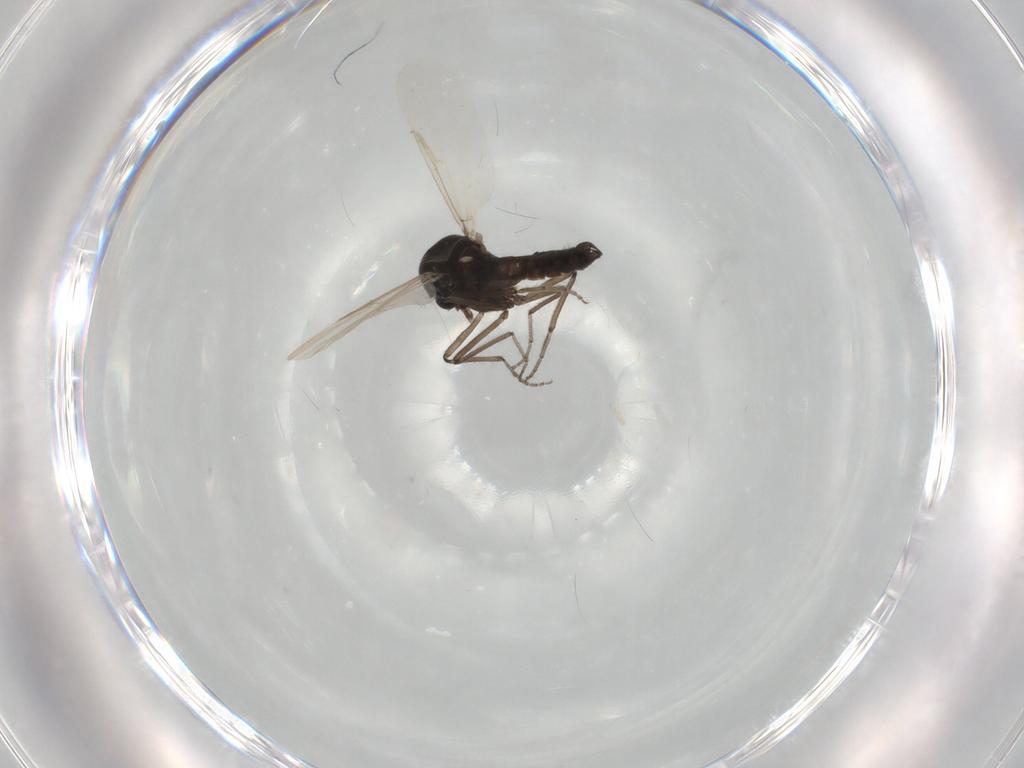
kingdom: Animalia
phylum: Arthropoda
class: Insecta
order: Diptera
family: Ceratopogonidae
